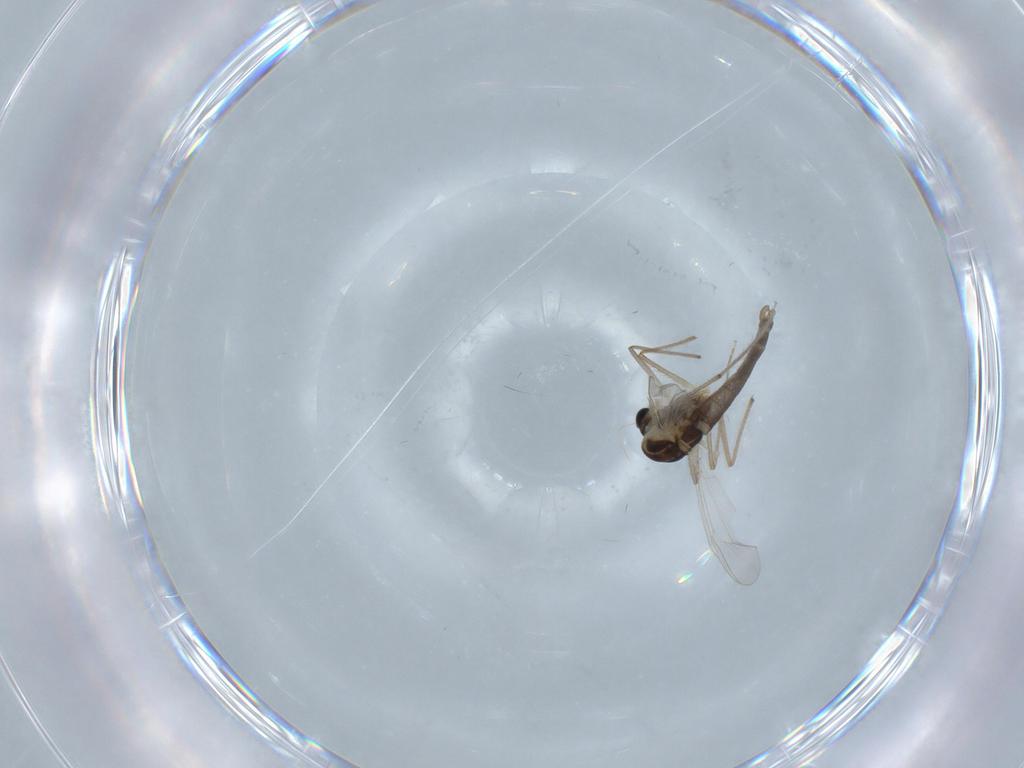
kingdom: Animalia
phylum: Arthropoda
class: Insecta
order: Diptera
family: Chironomidae
